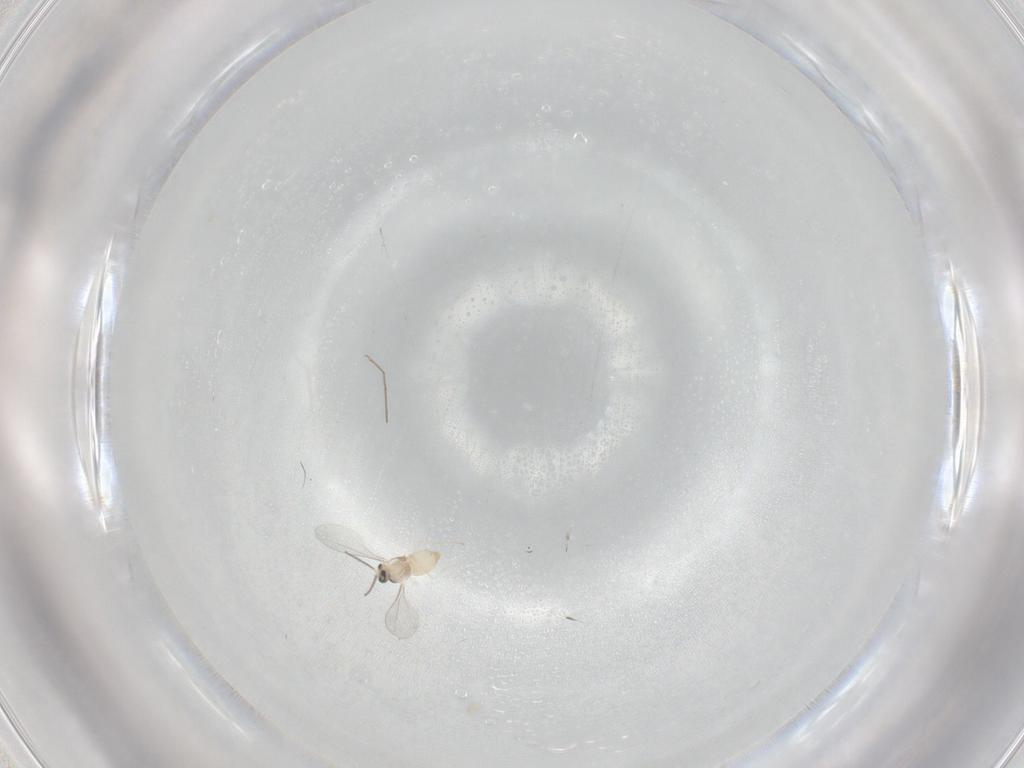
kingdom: Animalia
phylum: Arthropoda
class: Insecta
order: Diptera
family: Cecidomyiidae
